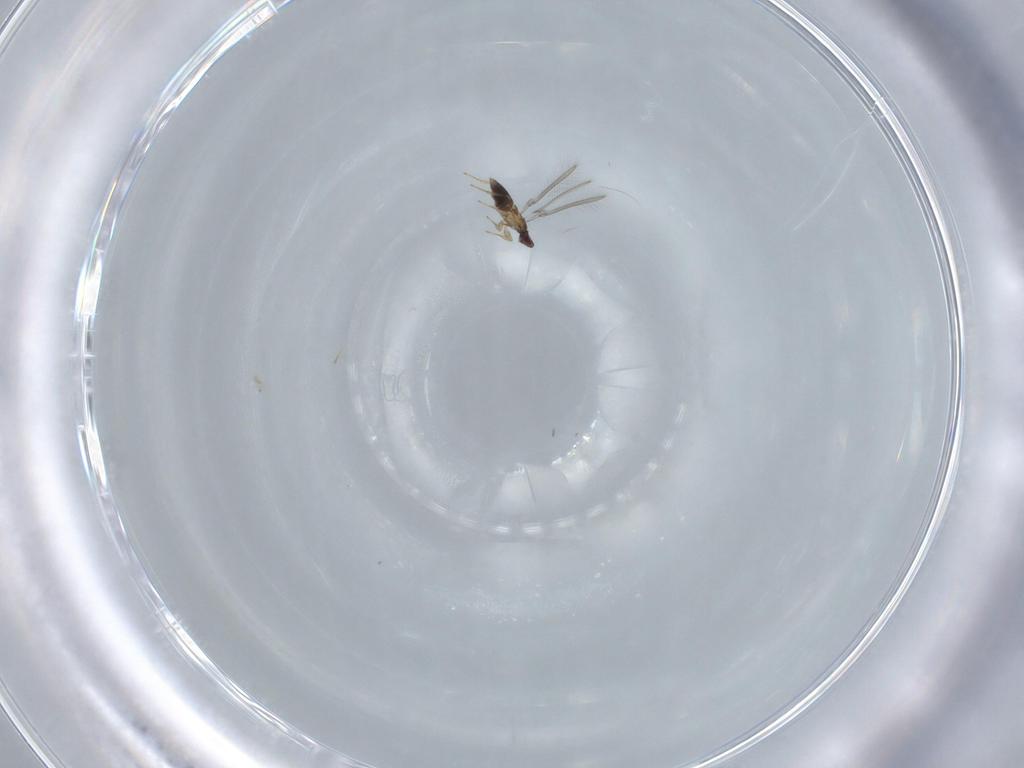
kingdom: Animalia
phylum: Arthropoda
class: Insecta
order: Hymenoptera
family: Mymaridae
